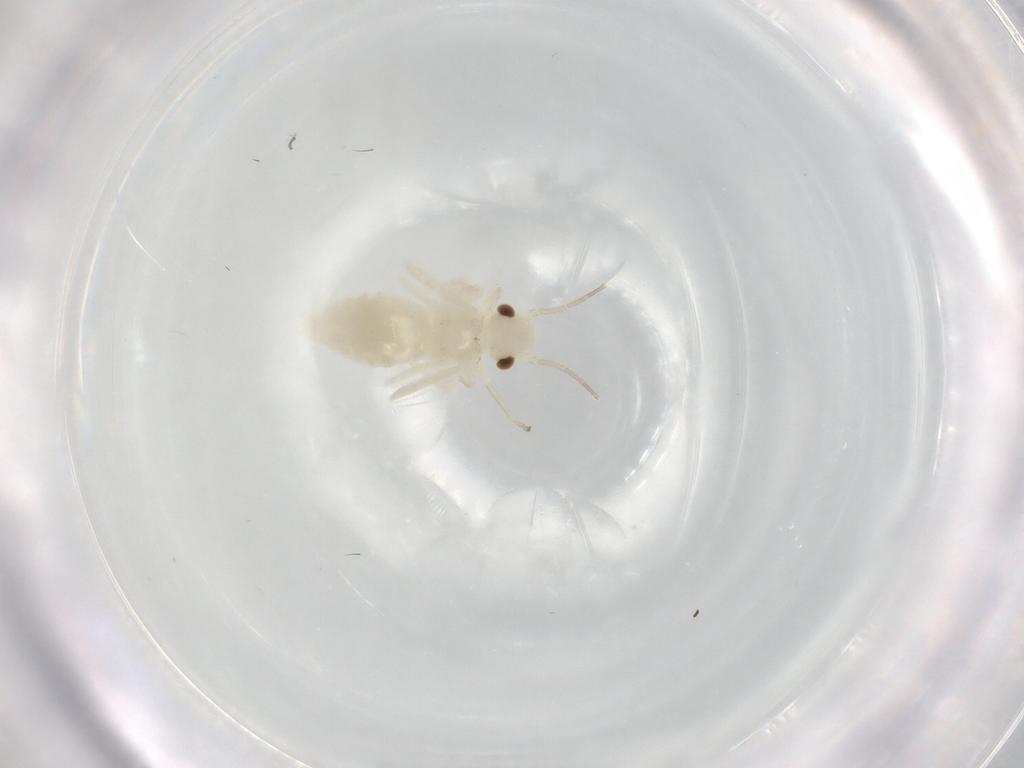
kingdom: Animalia
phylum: Arthropoda
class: Insecta
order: Psocodea
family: Caeciliusidae
